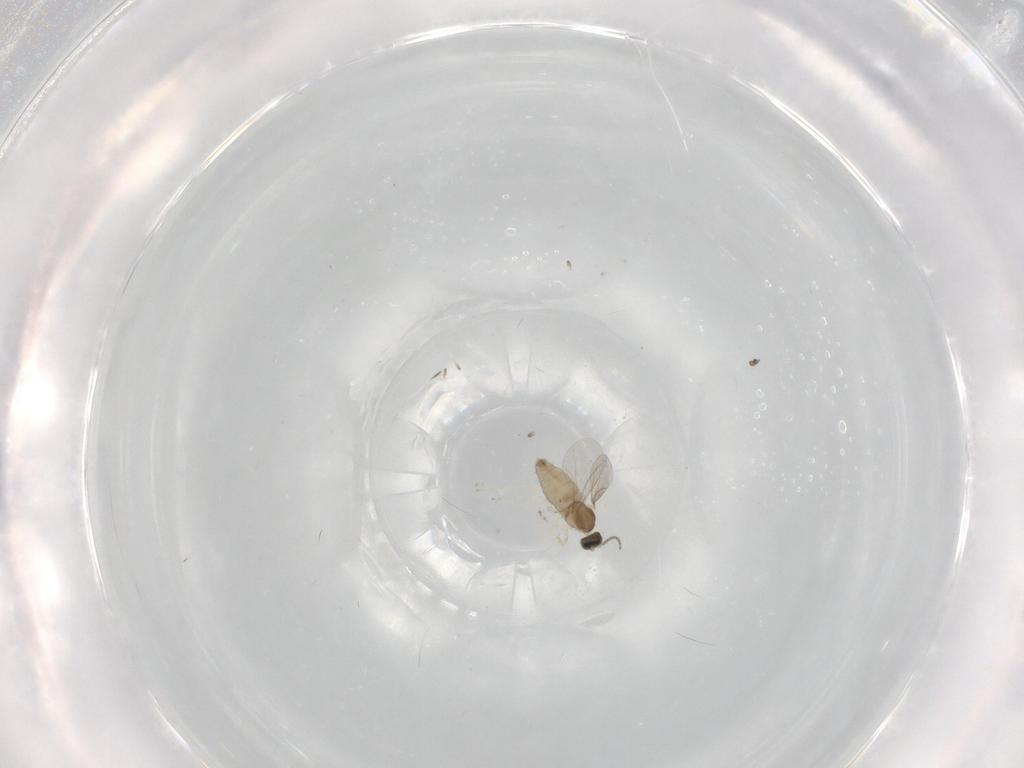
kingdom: Animalia
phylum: Arthropoda
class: Insecta
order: Diptera
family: Cecidomyiidae
